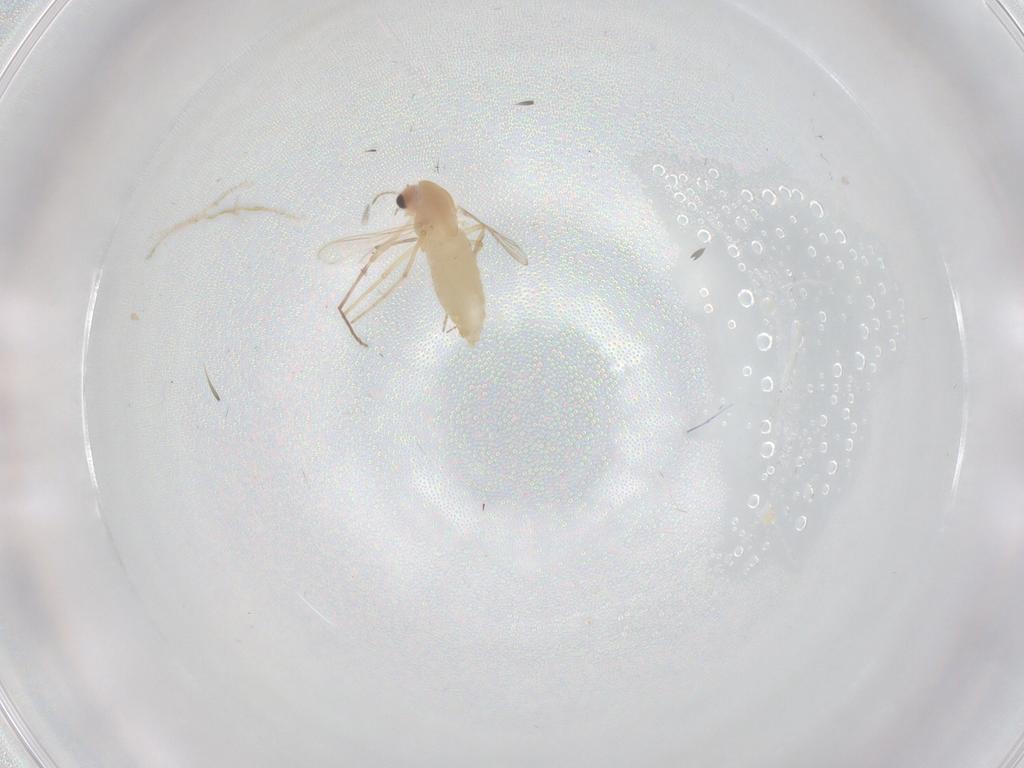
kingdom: Animalia
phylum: Arthropoda
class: Insecta
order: Diptera
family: Chironomidae
